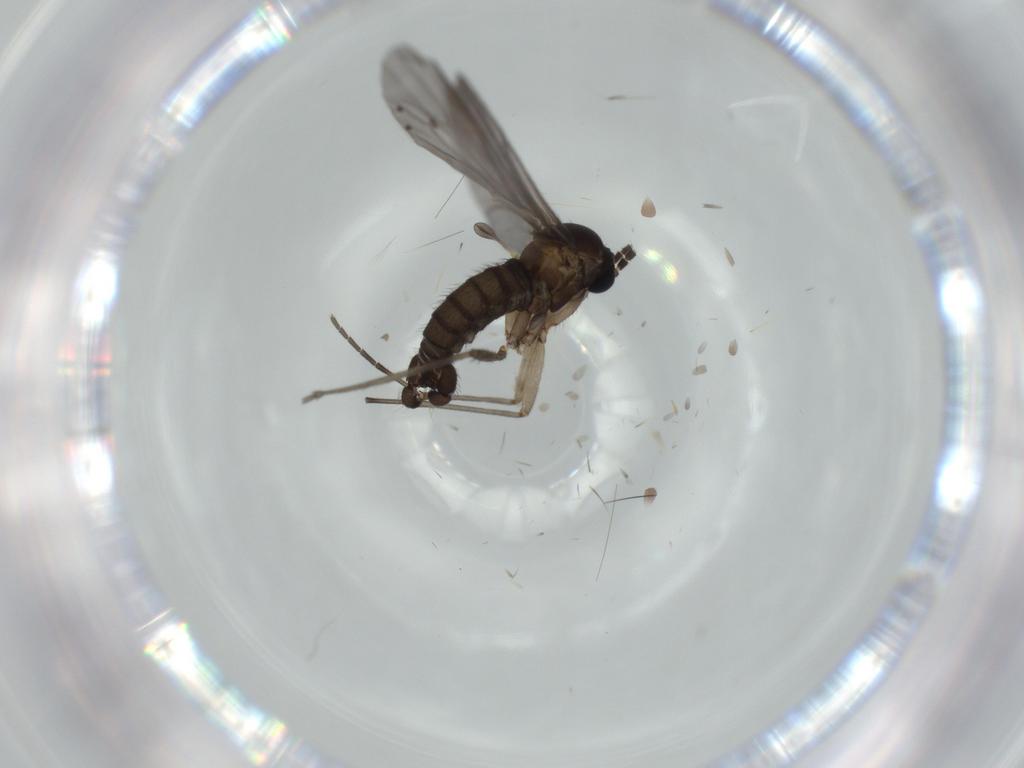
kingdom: Animalia
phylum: Arthropoda
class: Insecta
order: Diptera
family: Sciaridae
